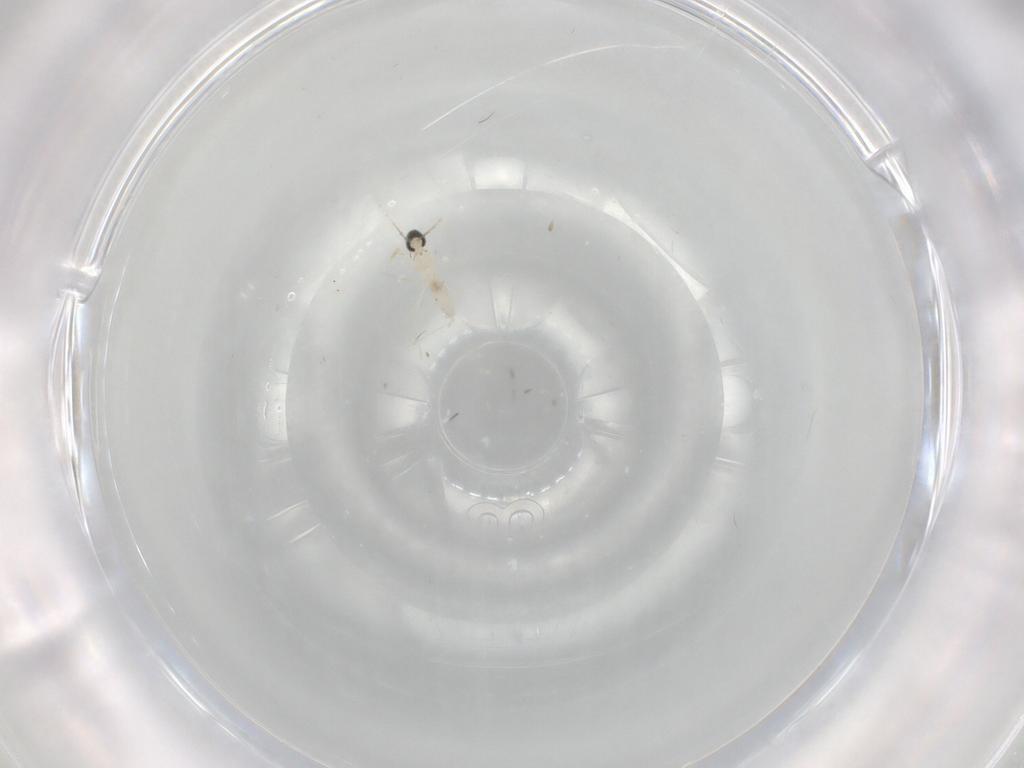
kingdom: Animalia
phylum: Arthropoda
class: Insecta
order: Diptera
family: Cecidomyiidae
